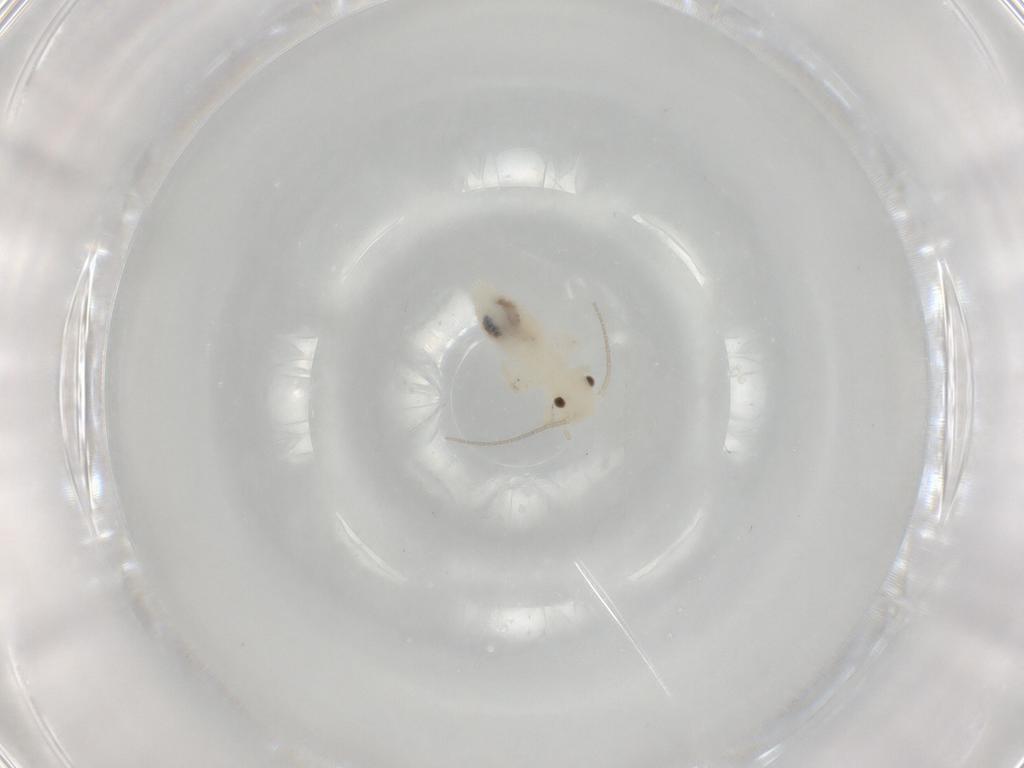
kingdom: Animalia
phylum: Arthropoda
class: Insecta
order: Psocodea
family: Caeciliusidae
